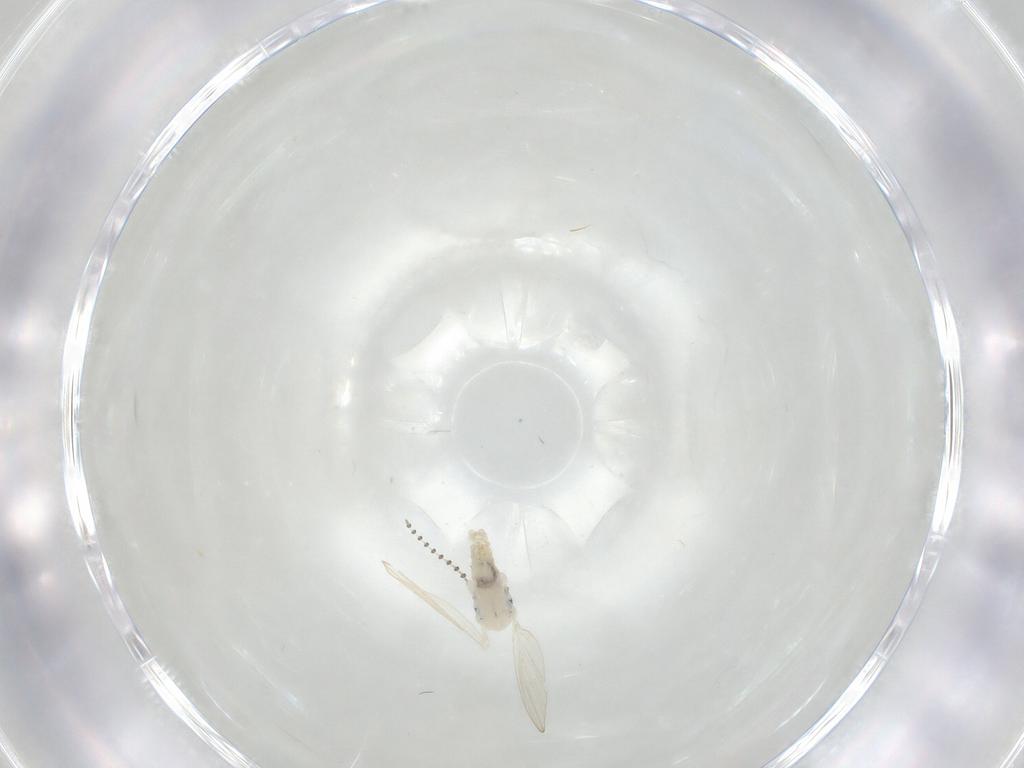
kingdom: Animalia
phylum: Arthropoda
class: Insecta
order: Diptera
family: Psychodidae
